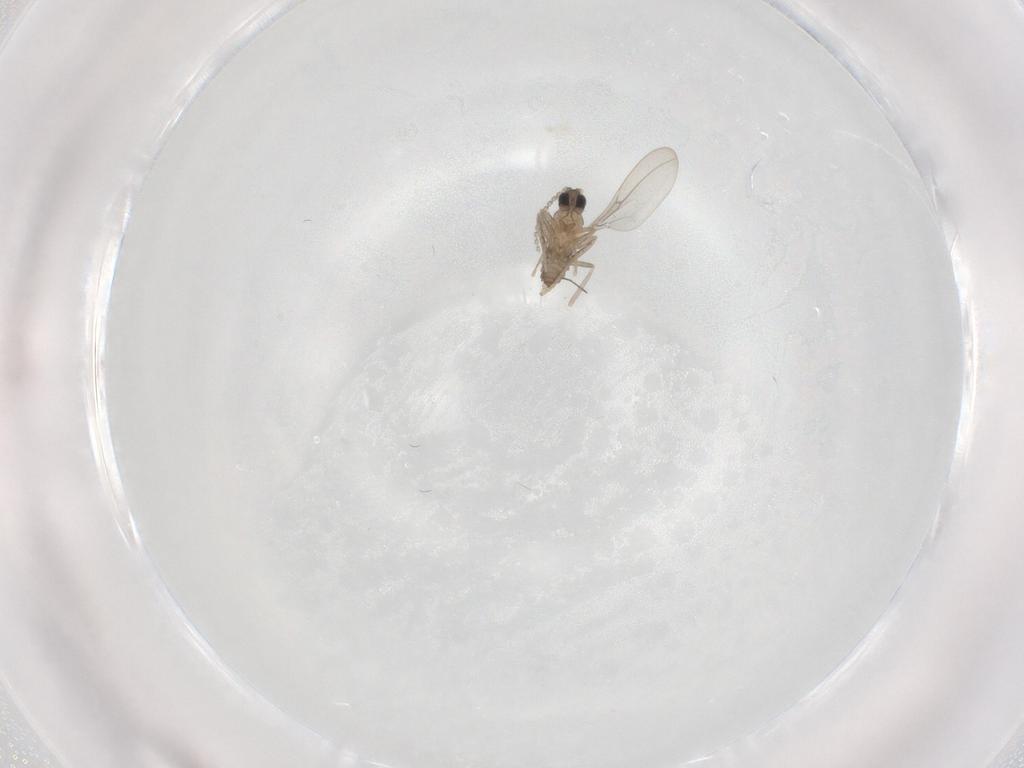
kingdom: Animalia
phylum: Arthropoda
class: Insecta
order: Diptera
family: Cecidomyiidae
